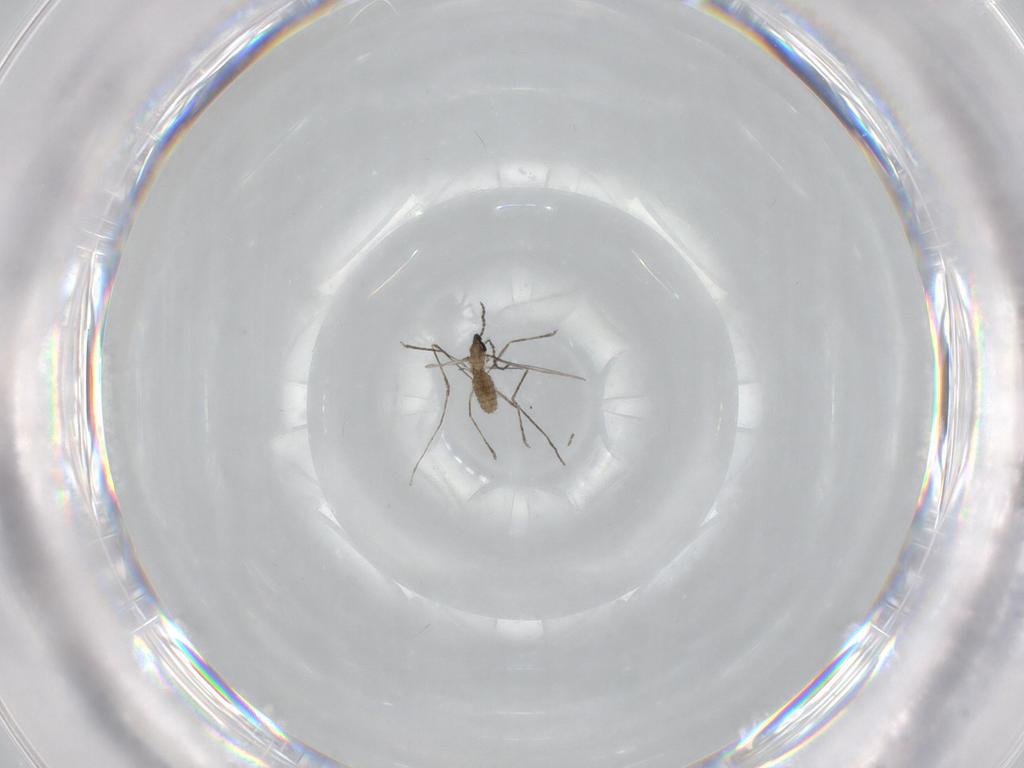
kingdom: Animalia
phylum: Arthropoda
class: Insecta
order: Diptera
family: Cecidomyiidae
